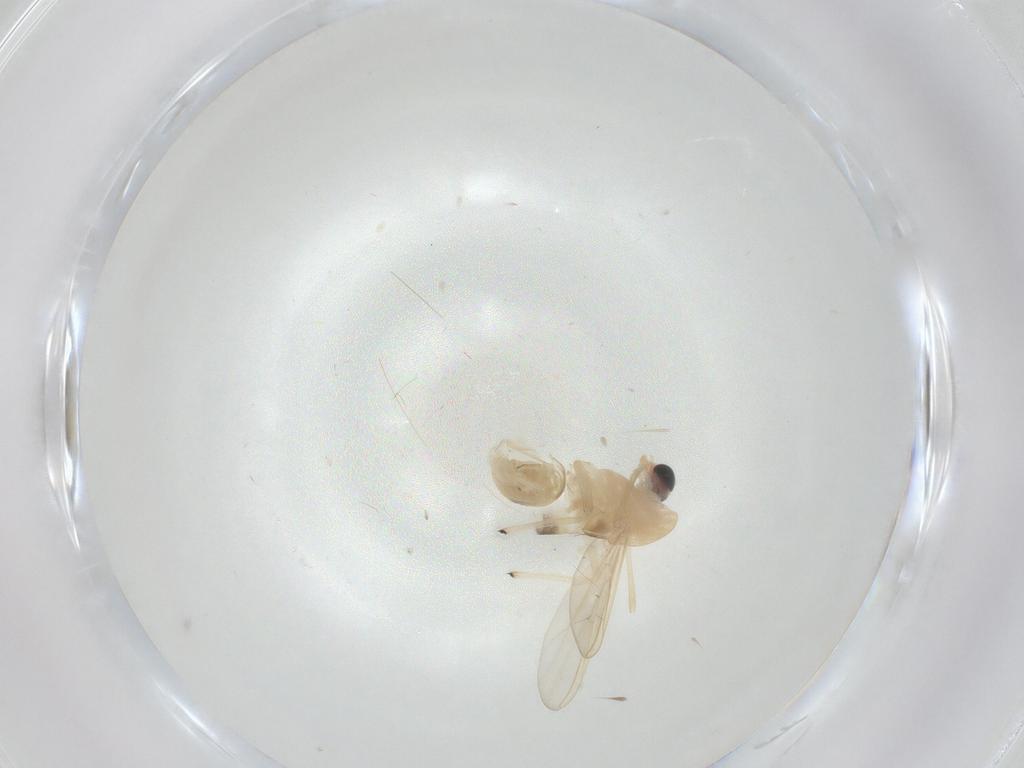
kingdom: Animalia
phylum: Arthropoda
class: Insecta
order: Diptera
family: Chironomidae
